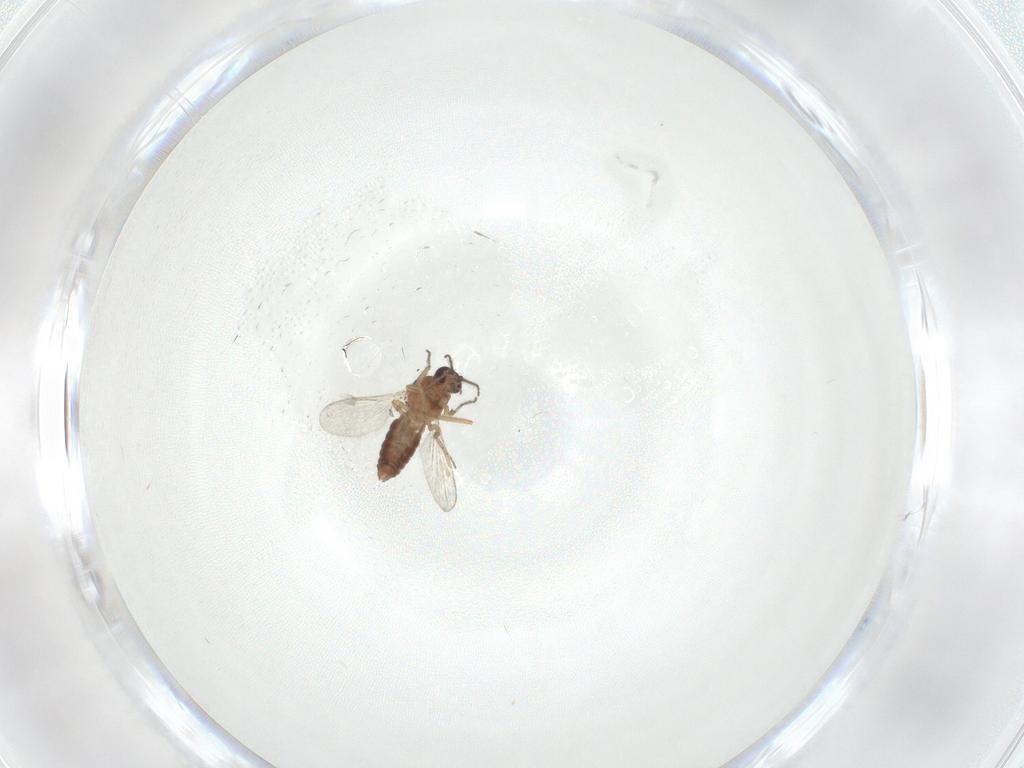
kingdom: Animalia
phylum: Arthropoda
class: Insecta
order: Diptera
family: Ceratopogonidae
